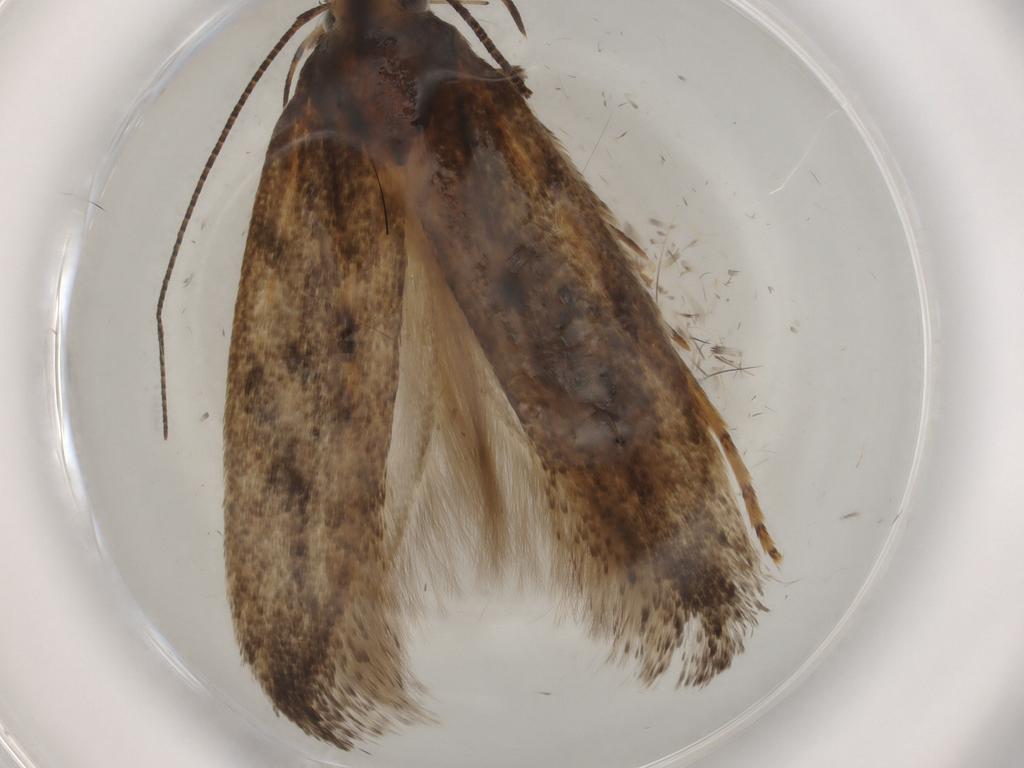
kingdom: Animalia
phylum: Arthropoda
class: Insecta
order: Lepidoptera
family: Gelechiidae
